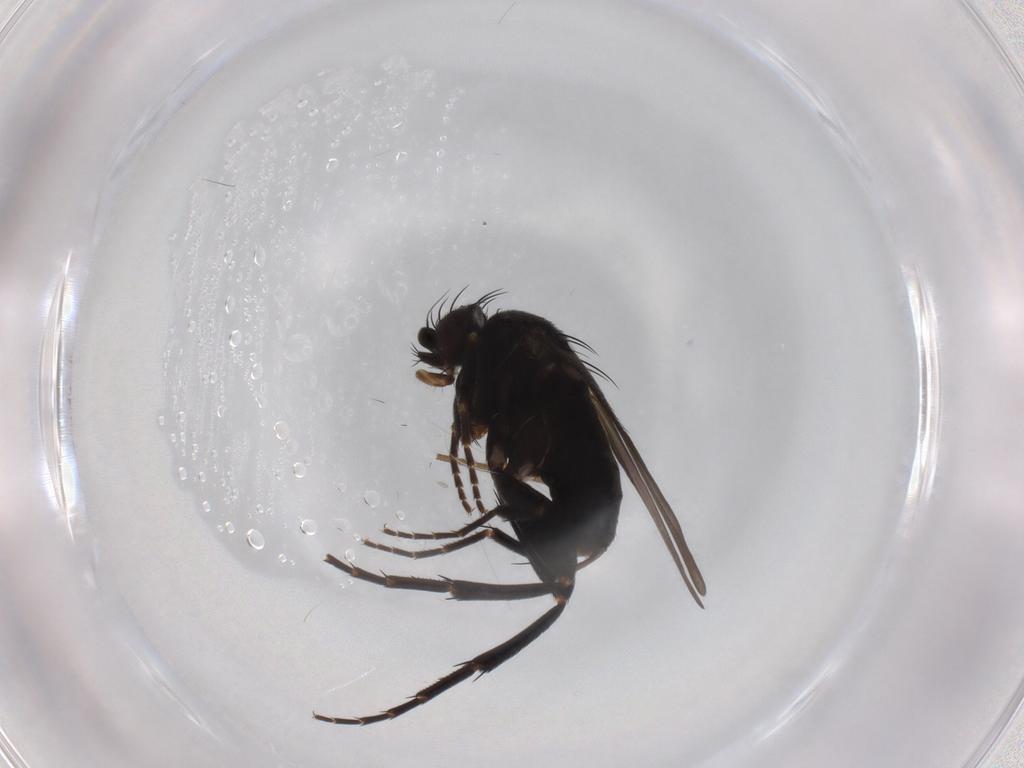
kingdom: Animalia
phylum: Arthropoda
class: Insecta
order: Diptera
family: Phoridae
